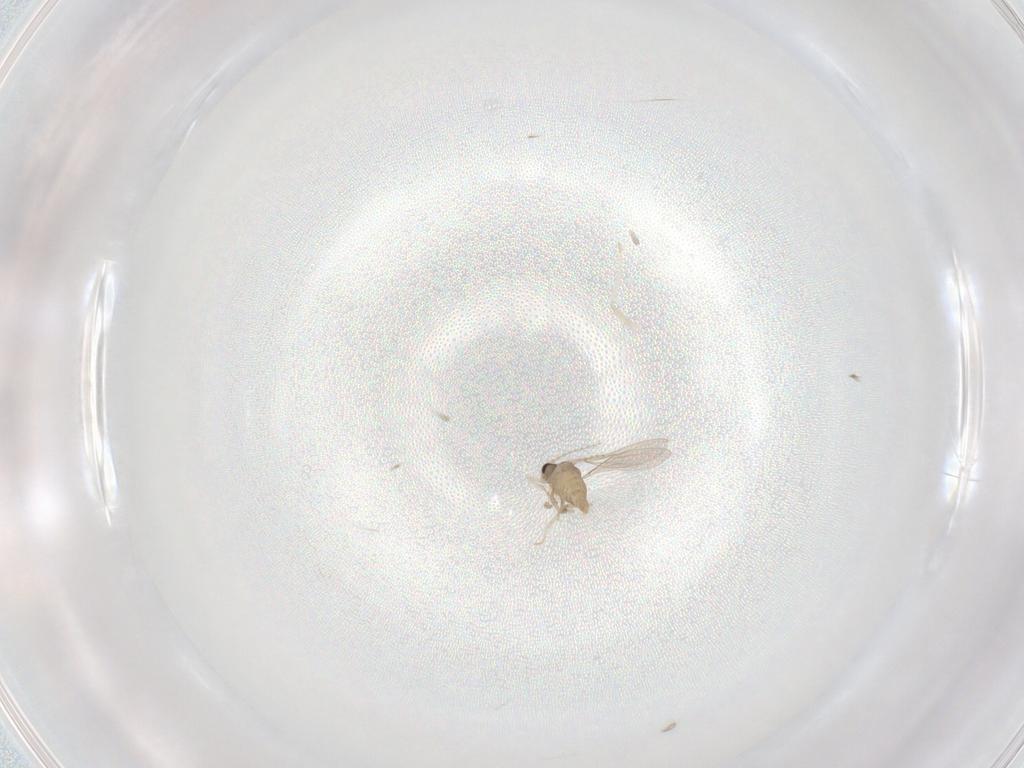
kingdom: Animalia
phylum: Arthropoda
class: Insecta
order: Diptera
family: Cecidomyiidae
